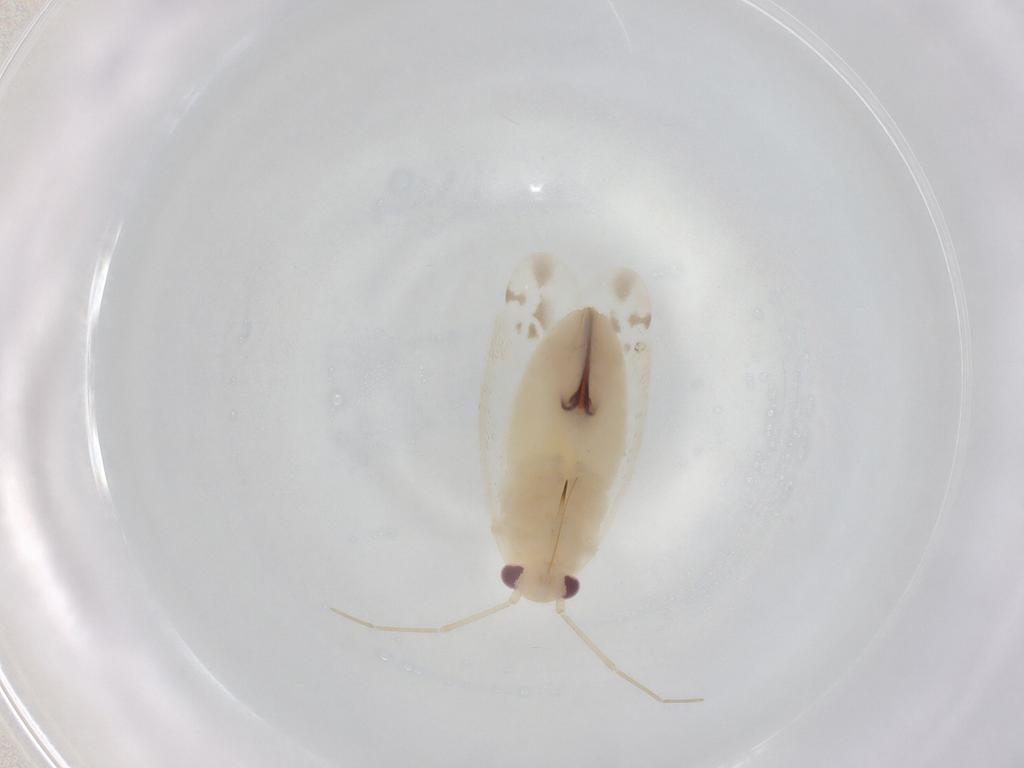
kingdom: Animalia
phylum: Arthropoda
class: Insecta
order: Hemiptera
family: Miridae
